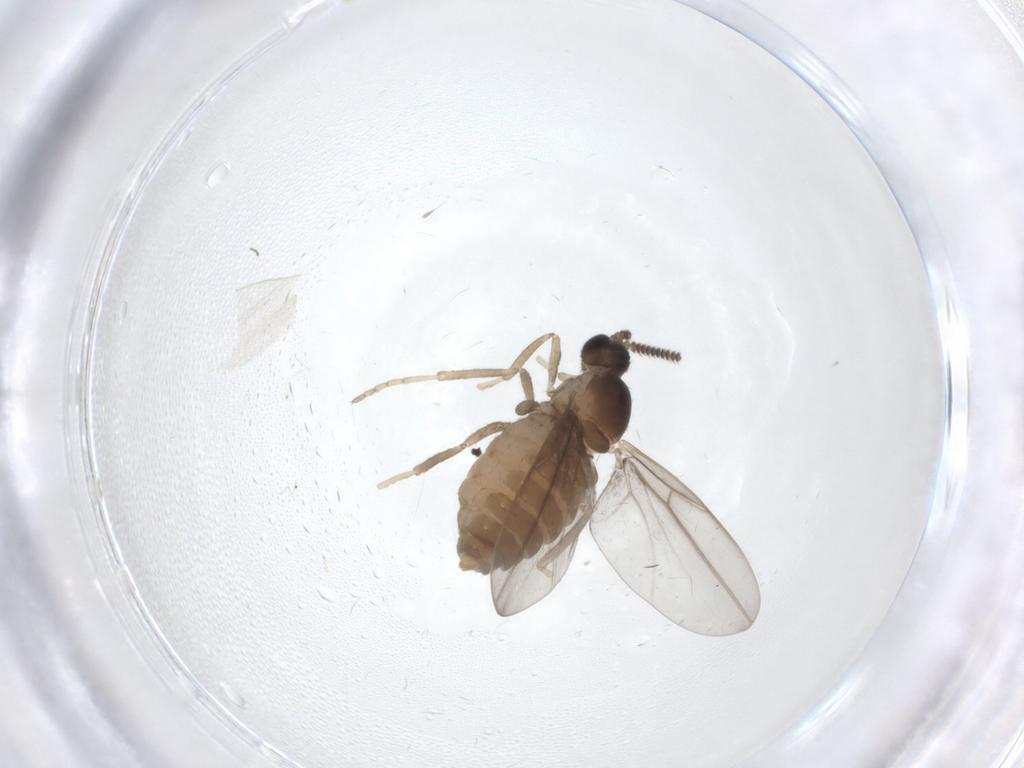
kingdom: Animalia
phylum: Arthropoda
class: Insecta
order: Diptera
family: Cecidomyiidae
